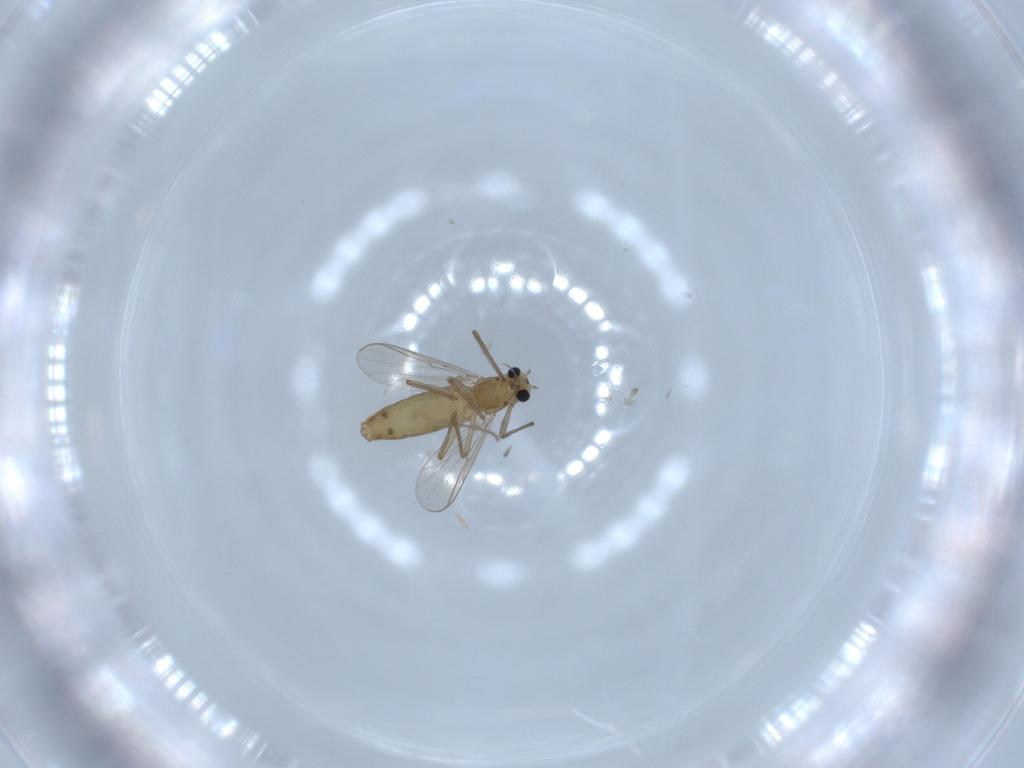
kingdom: Animalia
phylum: Arthropoda
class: Insecta
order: Diptera
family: Chironomidae
